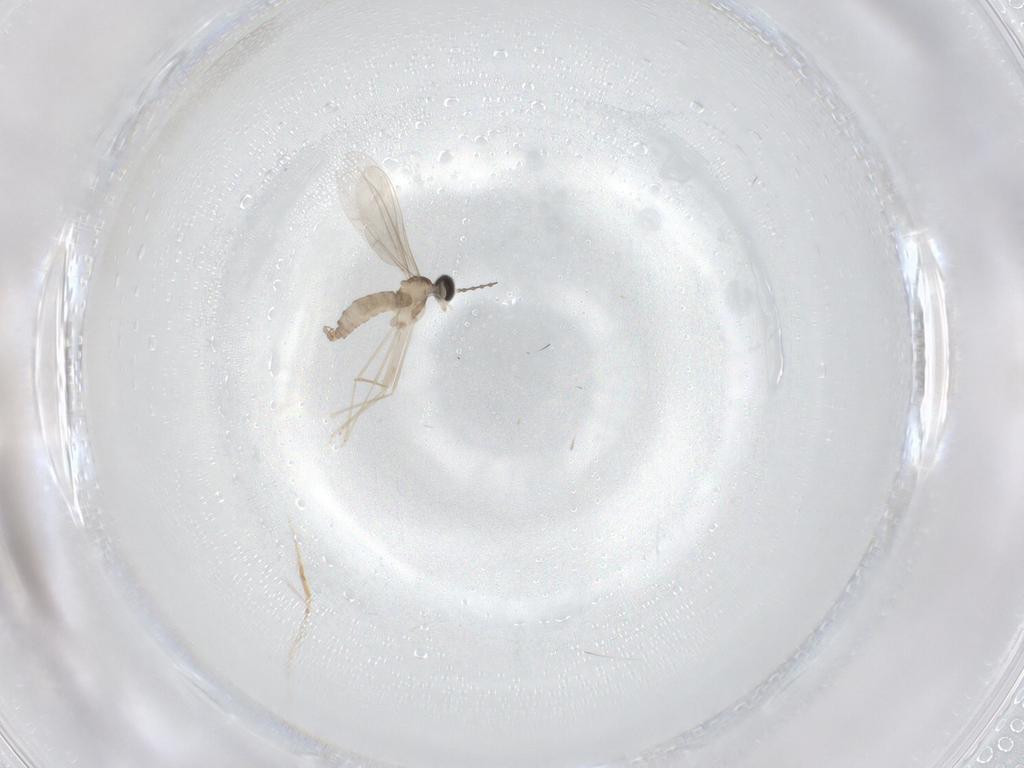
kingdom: Animalia
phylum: Arthropoda
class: Insecta
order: Diptera
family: Cecidomyiidae
